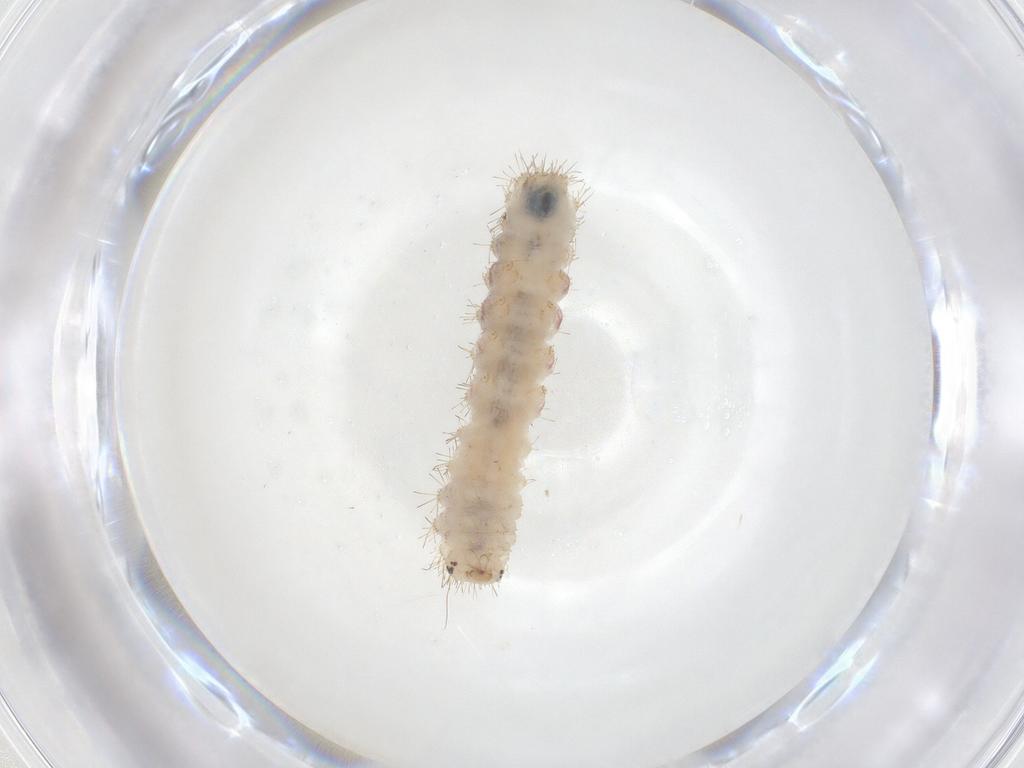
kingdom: Animalia
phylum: Arthropoda
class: Insecta
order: Lepidoptera
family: Erebidae
